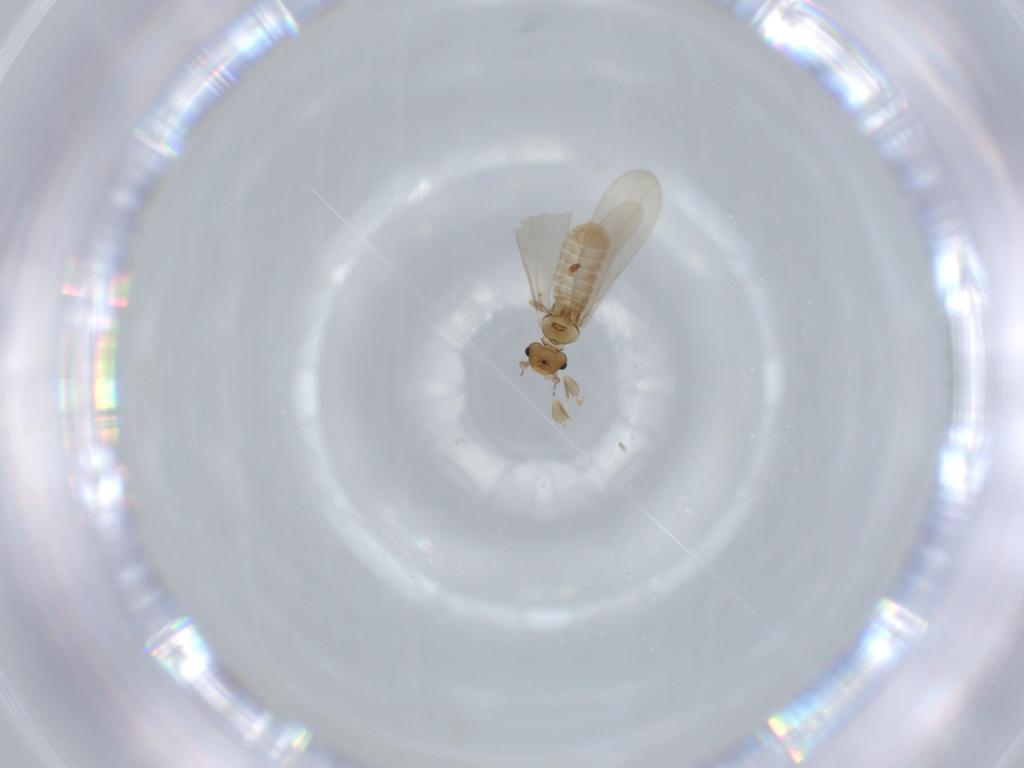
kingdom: Animalia
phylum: Arthropoda
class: Insecta
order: Psocodea
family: Liposcelididae
